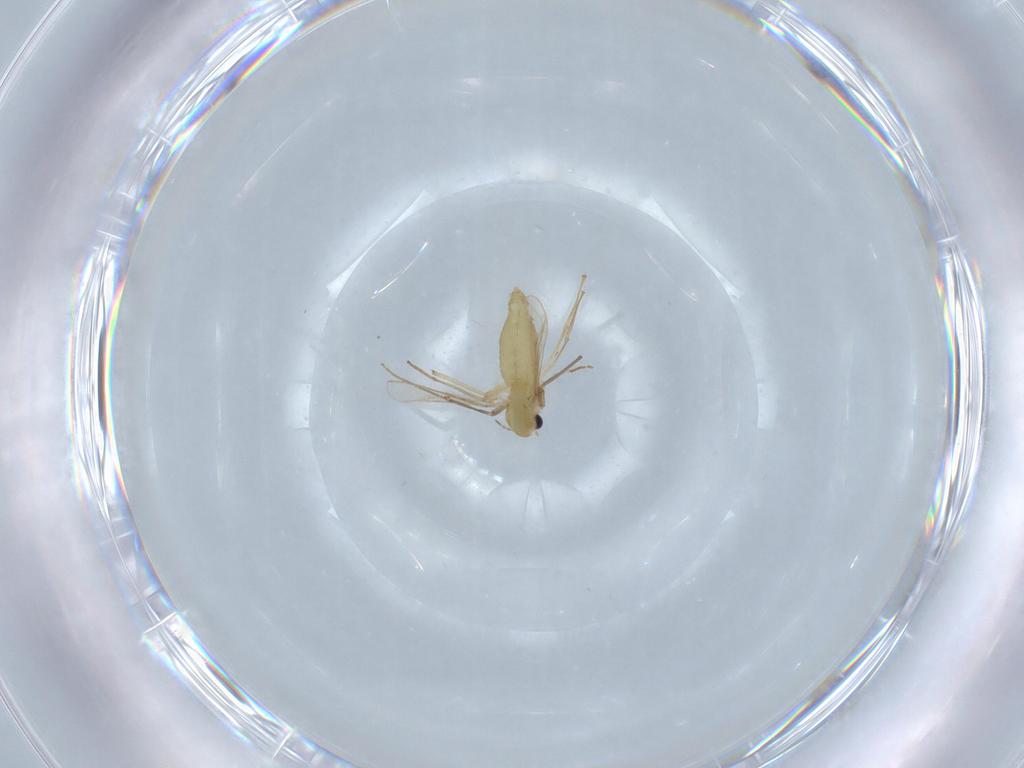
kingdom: Animalia
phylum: Arthropoda
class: Insecta
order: Diptera
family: Chironomidae
